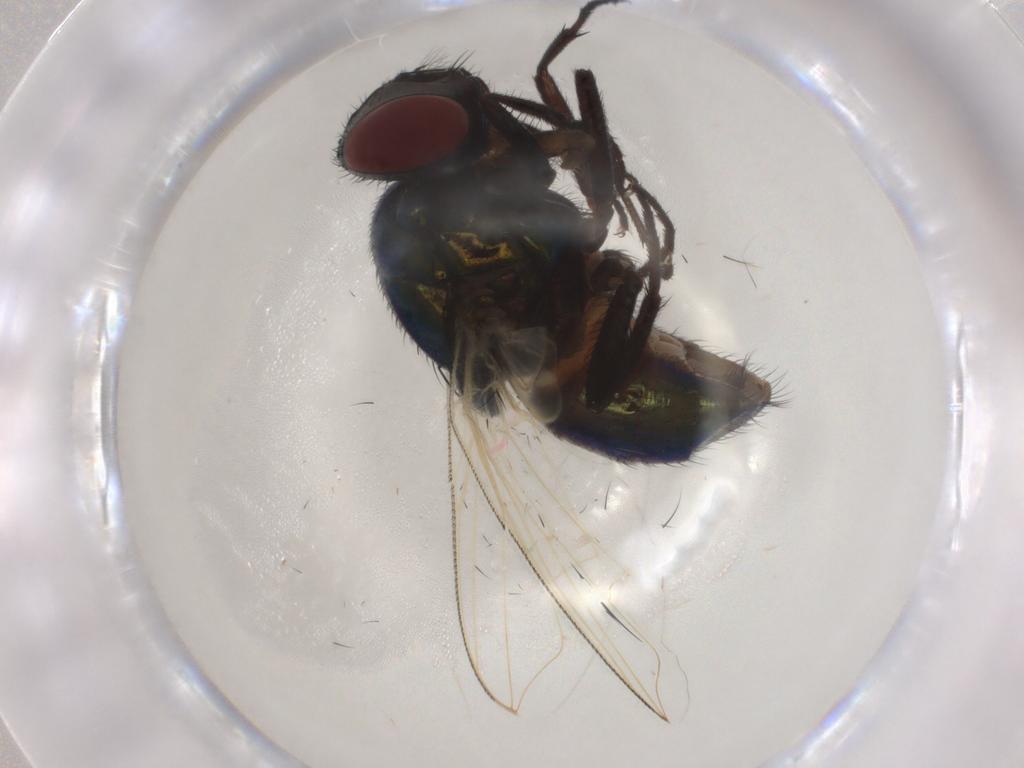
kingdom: Animalia
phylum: Arthropoda
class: Insecta
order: Diptera
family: Muscidae
